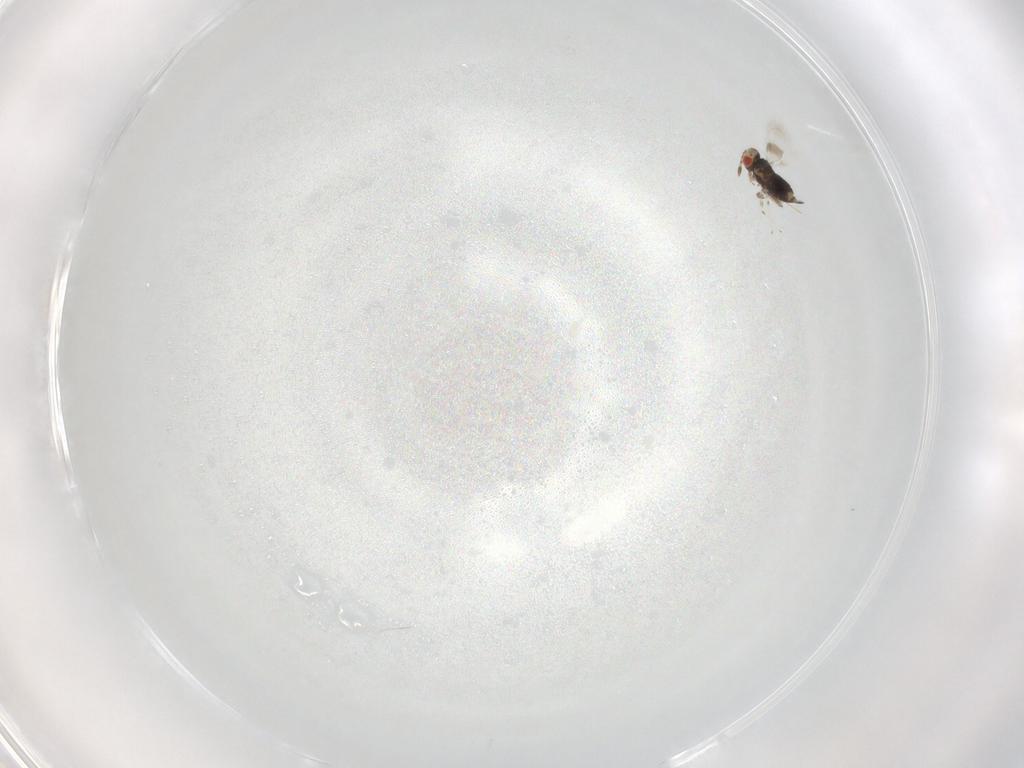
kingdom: Animalia
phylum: Arthropoda
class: Insecta
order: Hymenoptera
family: Azotidae
